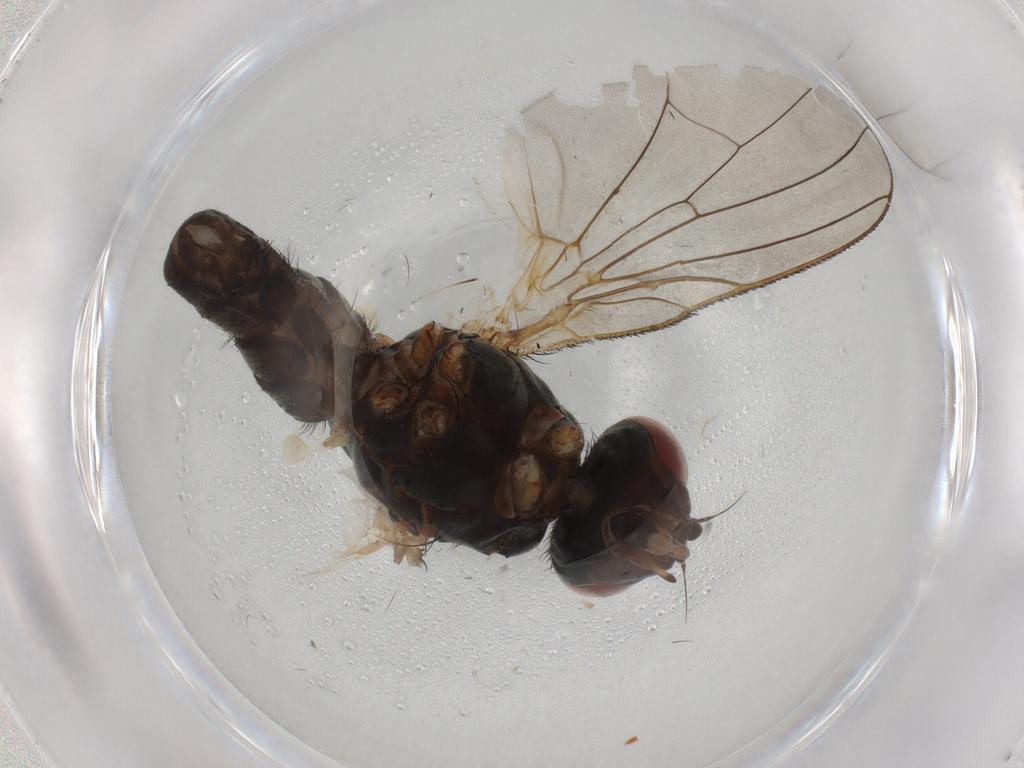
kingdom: Animalia
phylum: Arthropoda
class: Insecta
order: Diptera
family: Anthomyiidae
